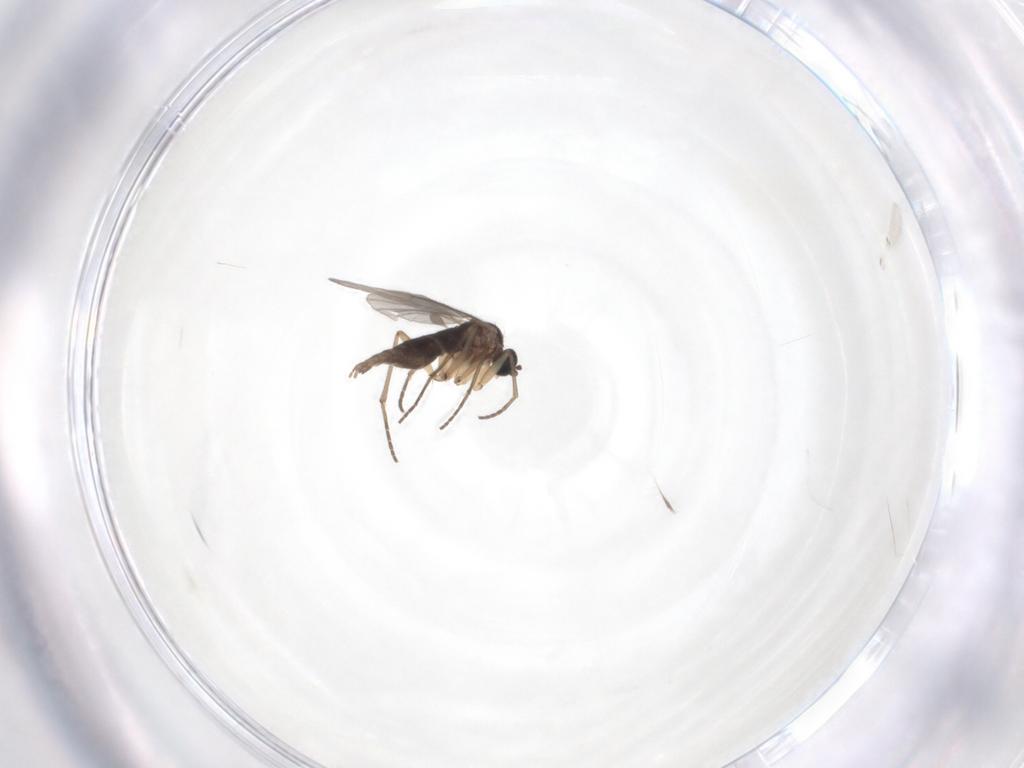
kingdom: Animalia
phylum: Arthropoda
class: Insecta
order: Diptera
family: Sciaridae
